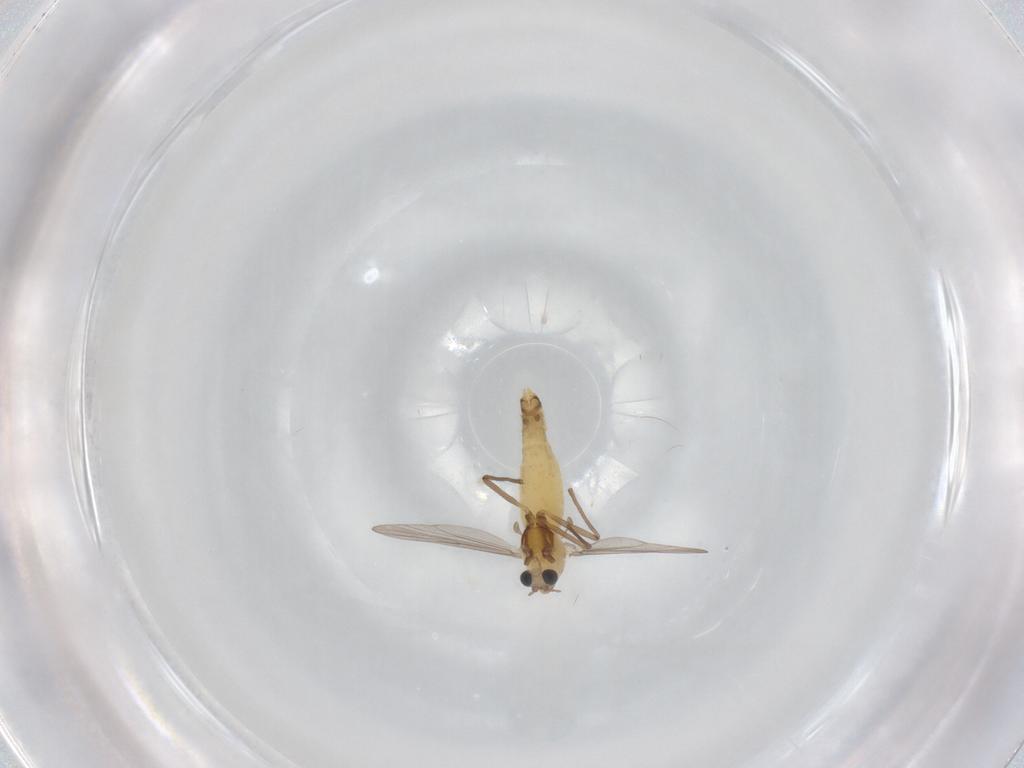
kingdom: Animalia
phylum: Arthropoda
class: Insecta
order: Diptera
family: Chironomidae
